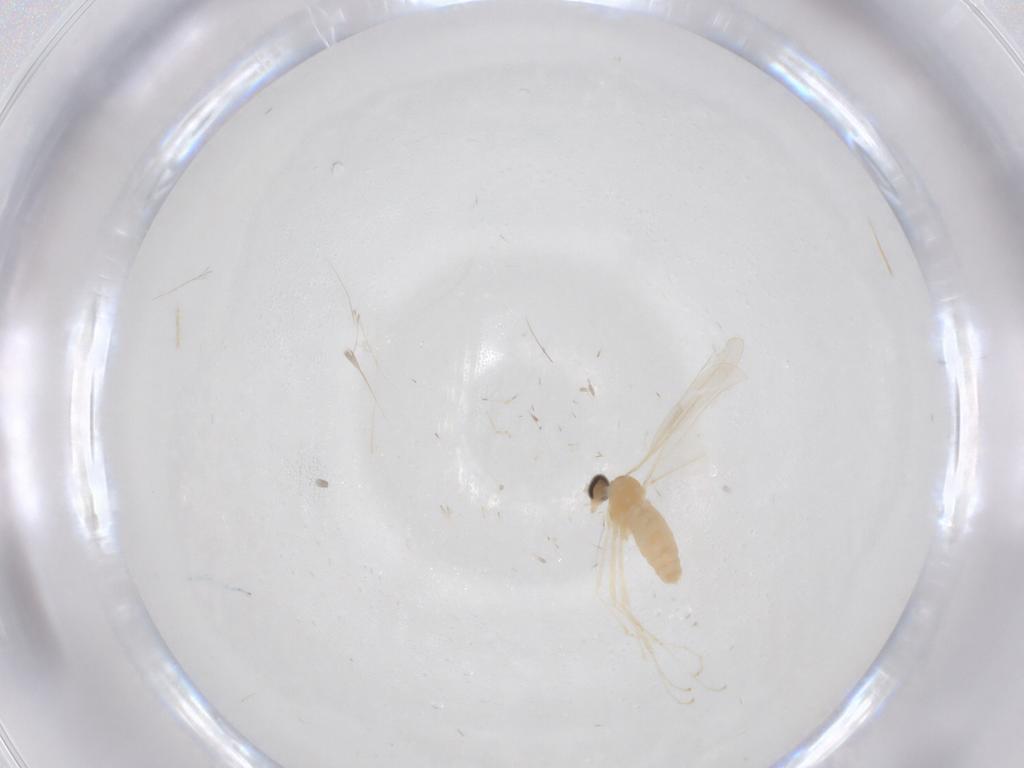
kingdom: Animalia
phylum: Arthropoda
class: Insecta
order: Diptera
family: Cecidomyiidae
